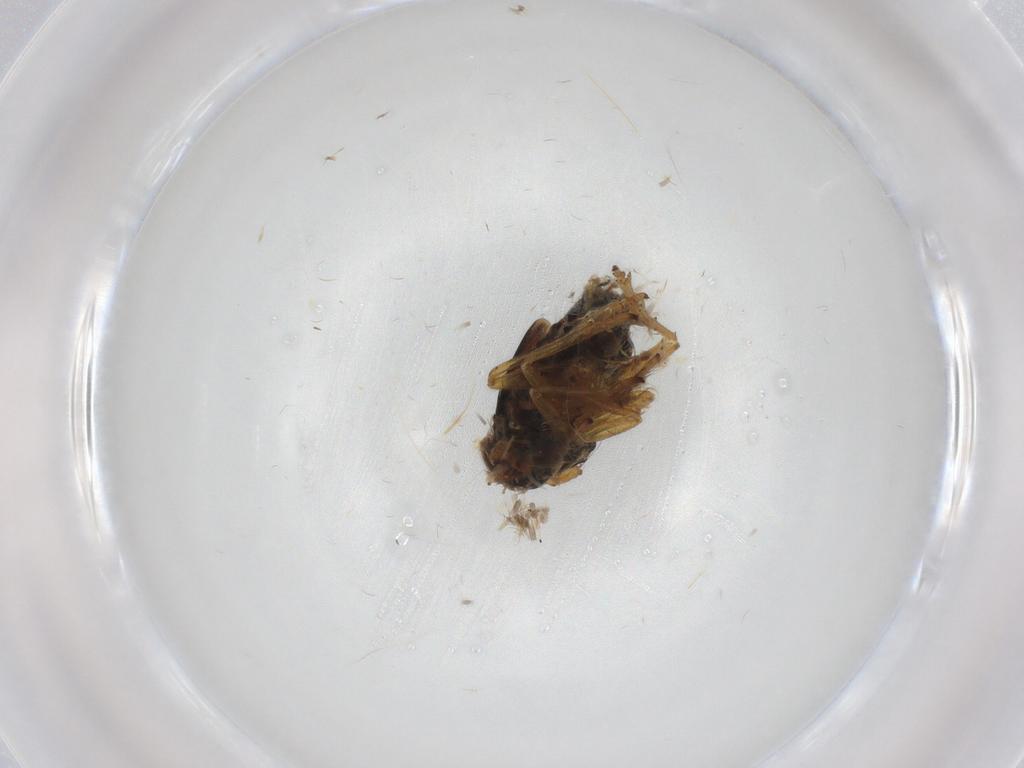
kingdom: Animalia
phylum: Arthropoda
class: Insecta
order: Hemiptera
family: Delphacidae
